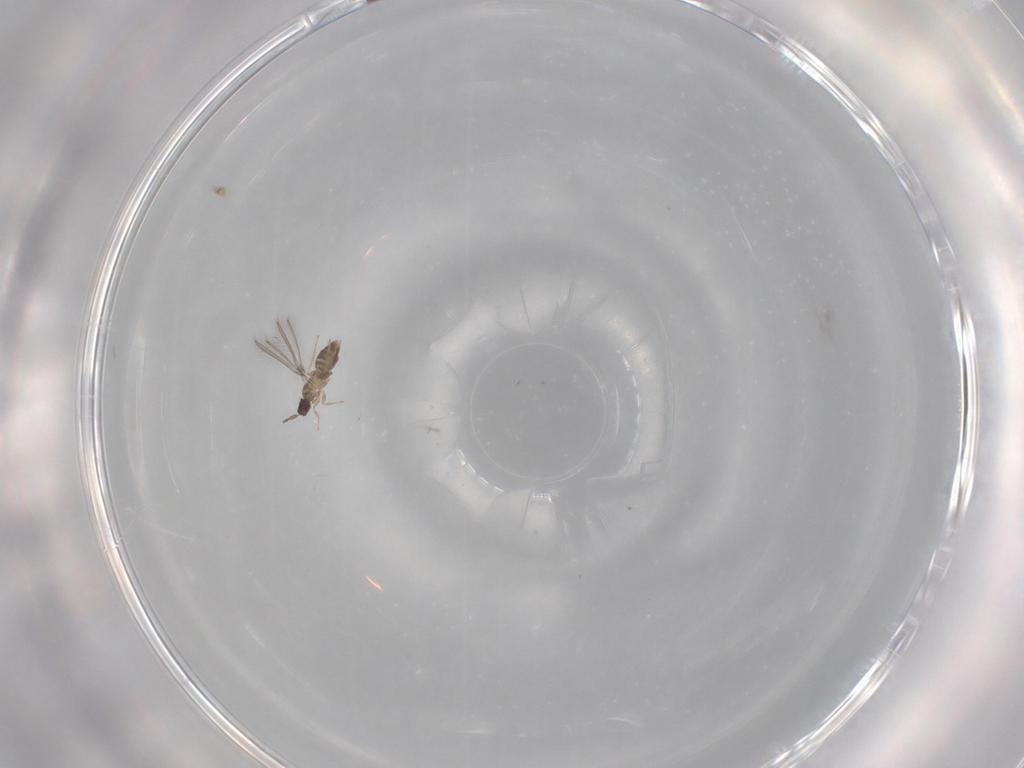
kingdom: Animalia
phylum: Arthropoda
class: Insecta
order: Hymenoptera
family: Mymaridae
